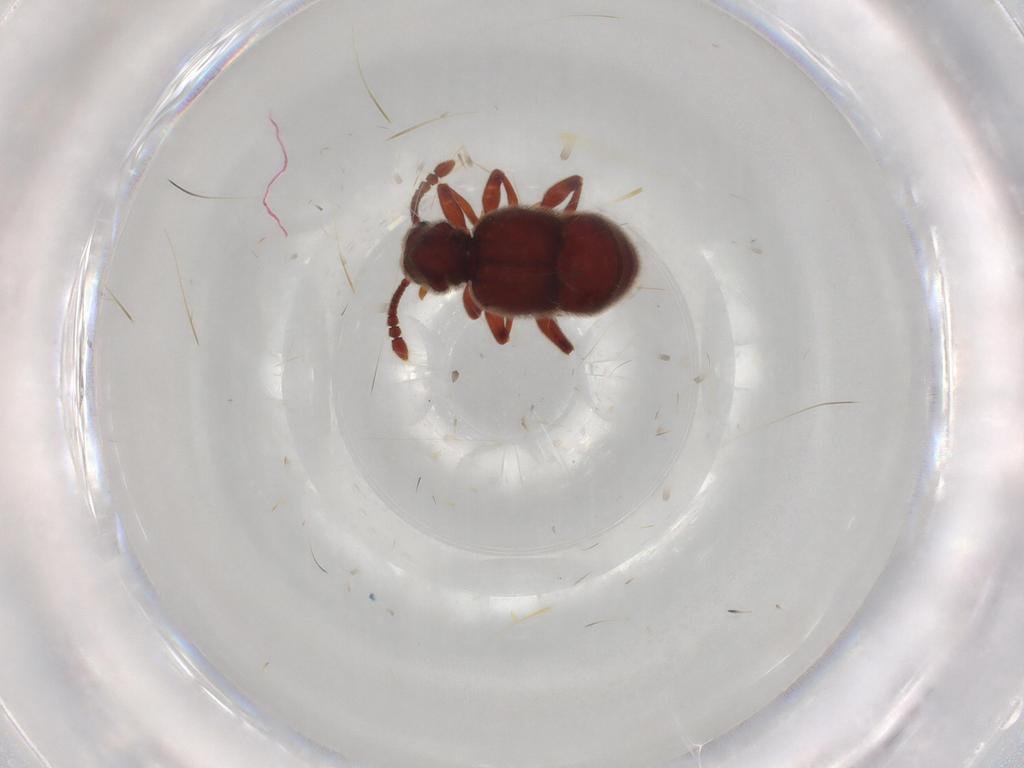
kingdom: Animalia
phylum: Arthropoda
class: Insecta
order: Coleoptera
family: Staphylinidae
